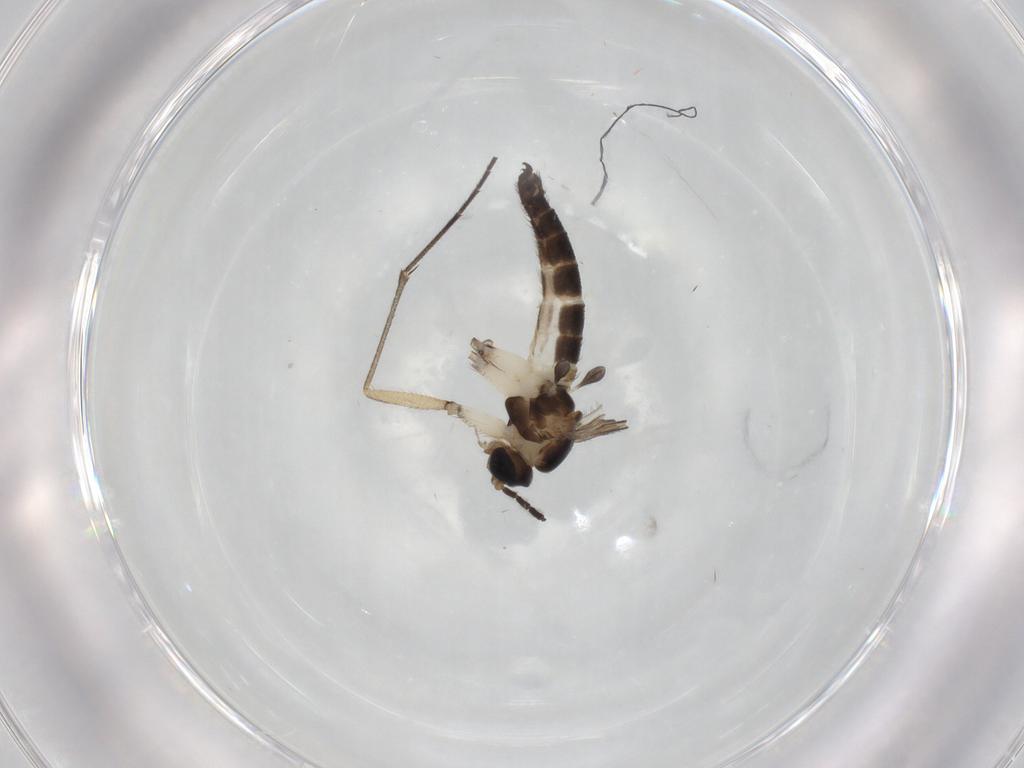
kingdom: Animalia
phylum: Arthropoda
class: Insecta
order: Diptera
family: Sciaridae
